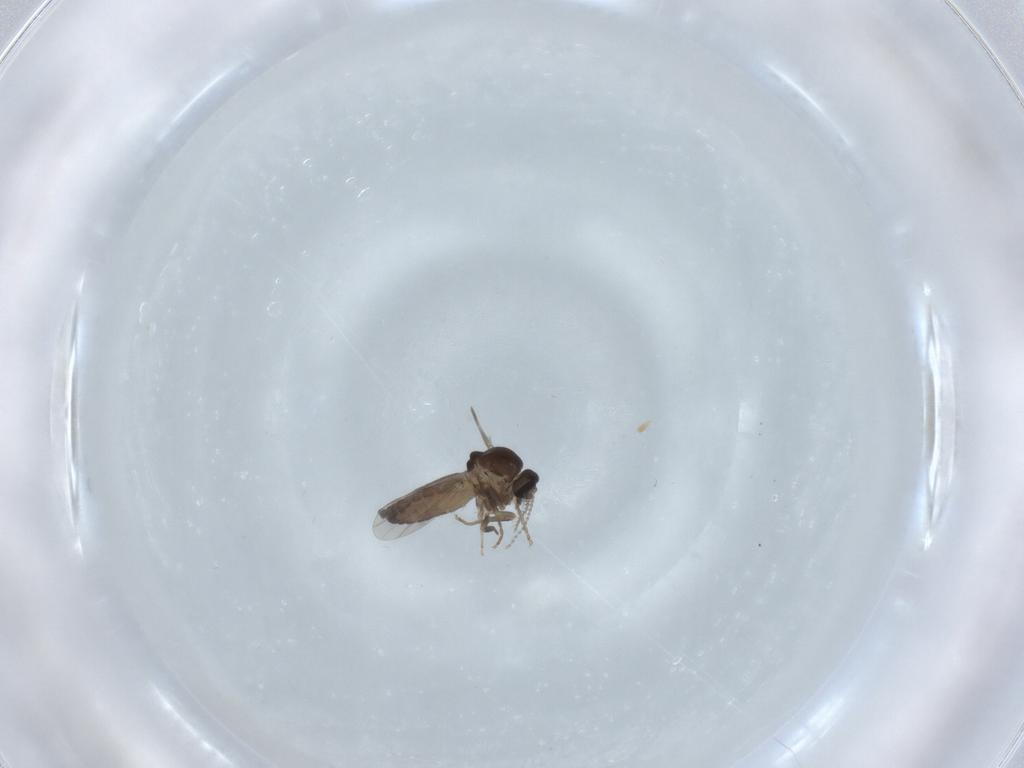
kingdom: Animalia
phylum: Arthropoda
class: Insecta
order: Diptera
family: Ceratopogonidae
